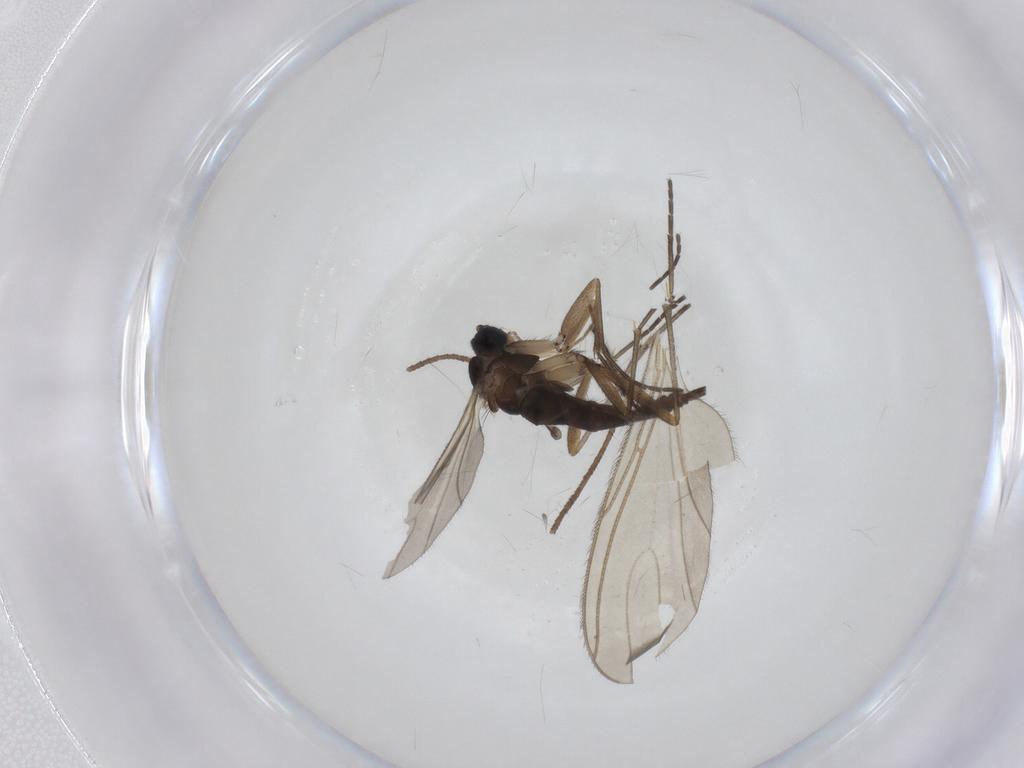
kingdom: Animalia
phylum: Arthropoda
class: Insecta
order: Diptera
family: Sciaridae
